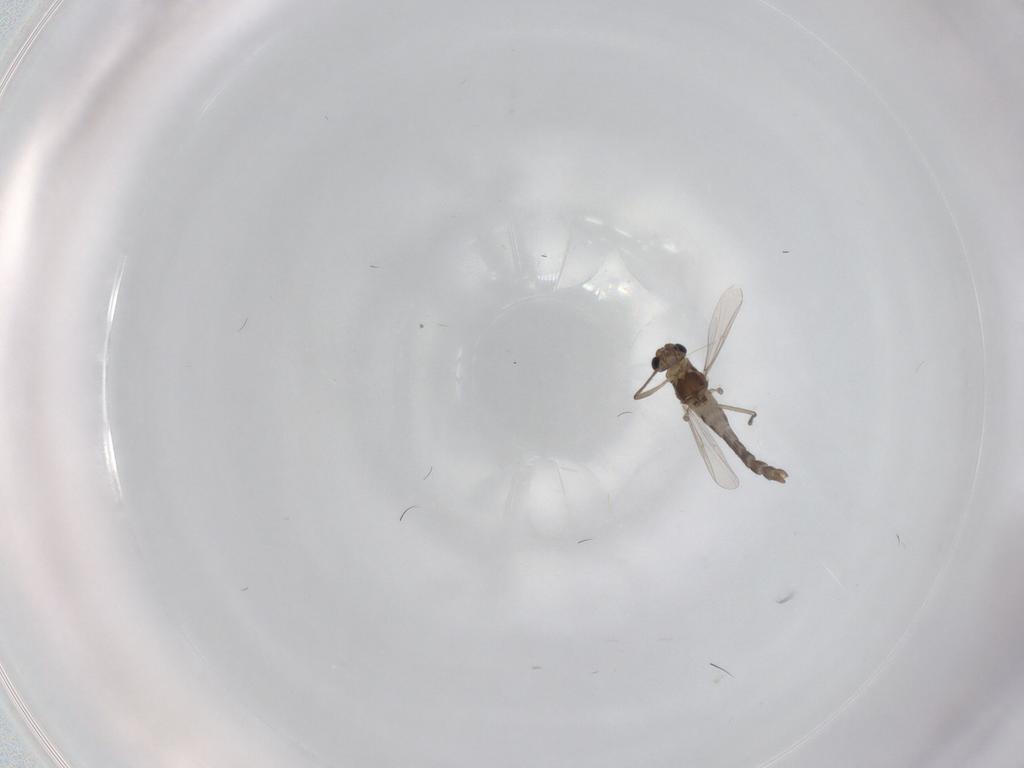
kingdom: Animalia
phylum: Arthropoda
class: Insecta
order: Diptera
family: Chironomidae
